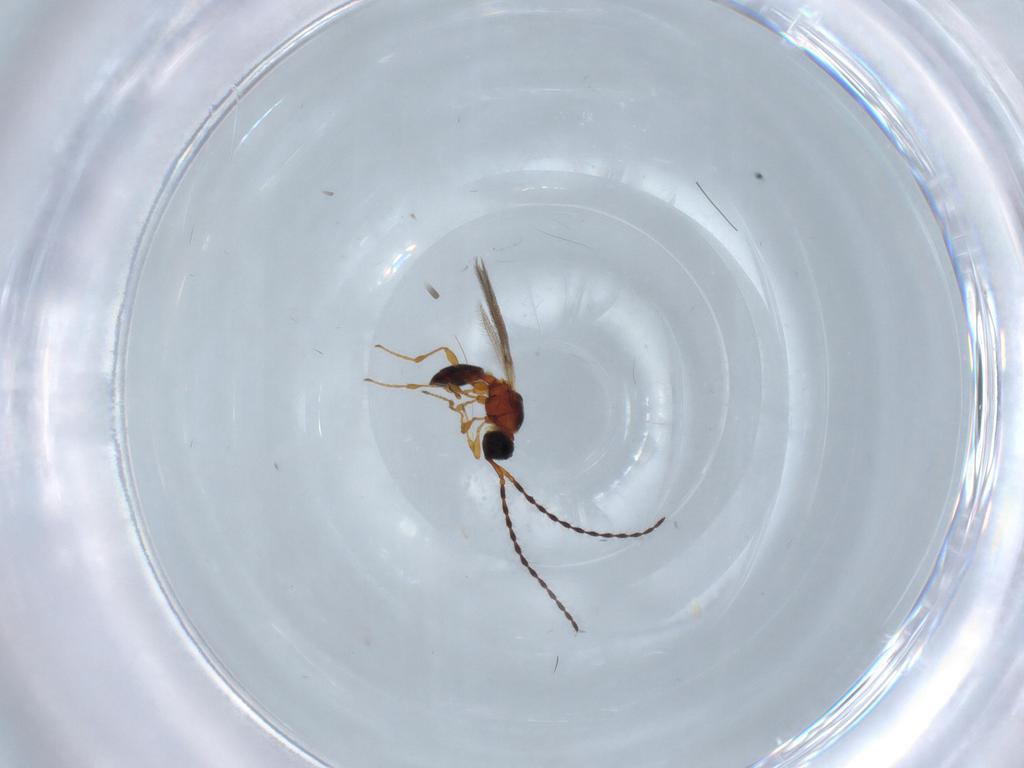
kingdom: Animalia
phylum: Arthropoda
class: Insecta
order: Hymenoptera
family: Diapriidae
